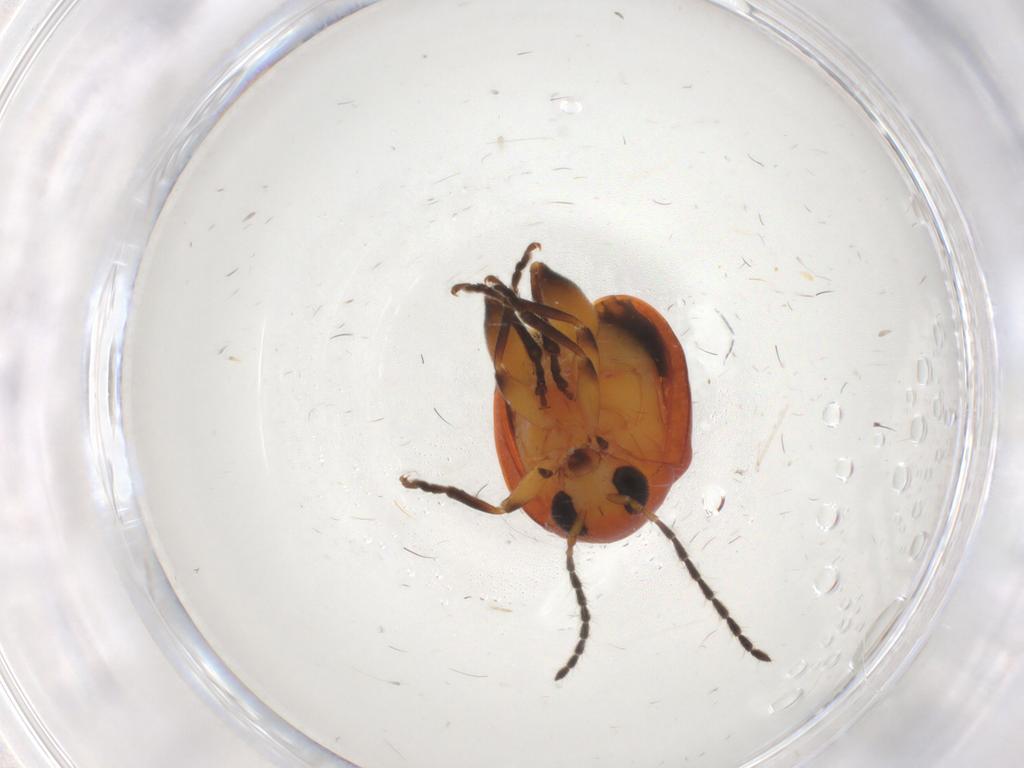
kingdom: Animalia
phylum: Arthropoda
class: Insecta
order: Coleoptera
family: Chrysomelidae
